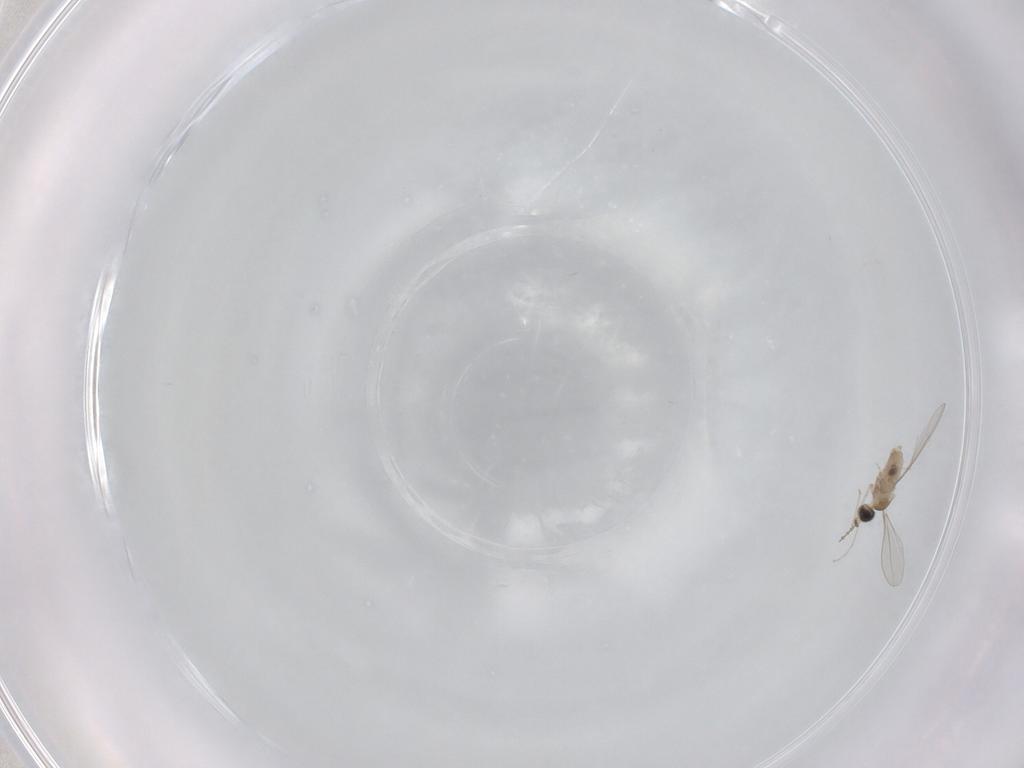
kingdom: Animalia
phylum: Arthropoda
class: Insecta
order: Diptera
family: Cecidomyiidae
